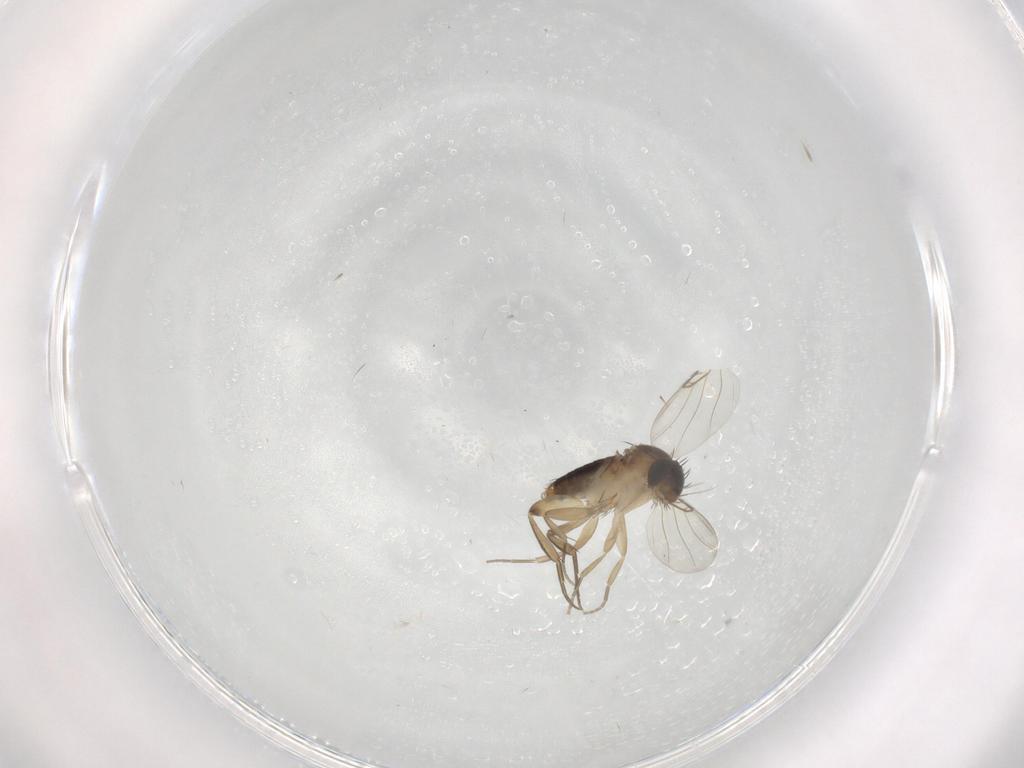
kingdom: Animalia
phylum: Arthropoda
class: Insecta
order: Diptera
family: Phoridae
